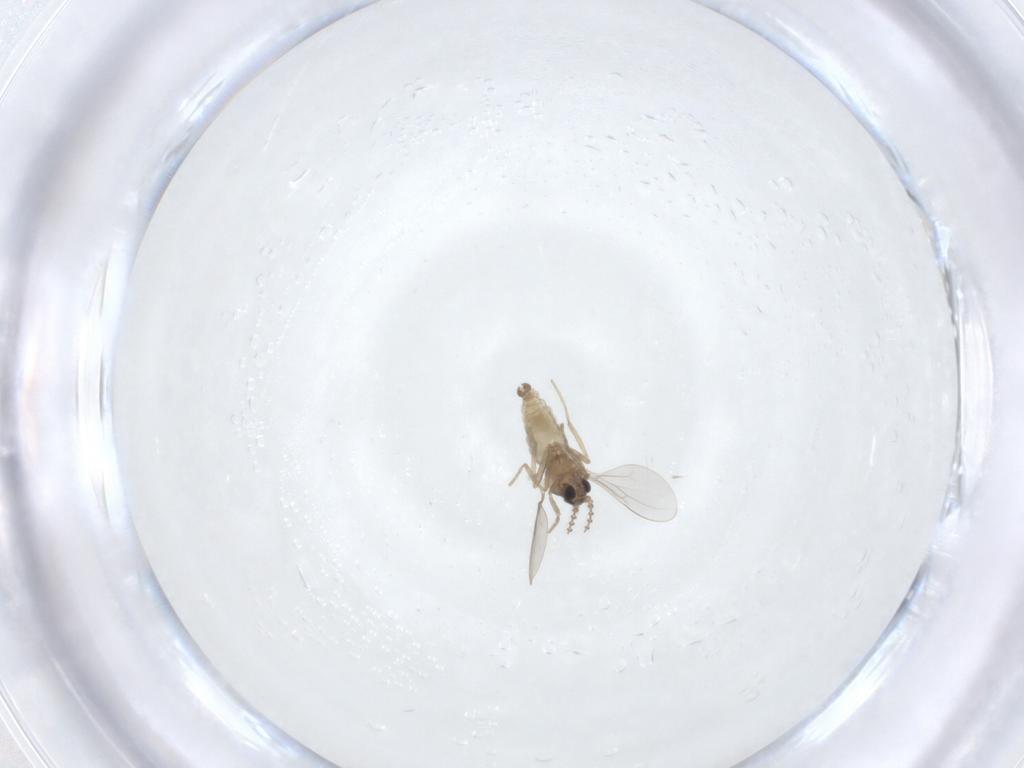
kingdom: Animalia
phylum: Arthropoda
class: Insecta
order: Diptera
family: Cecidomyiidae
